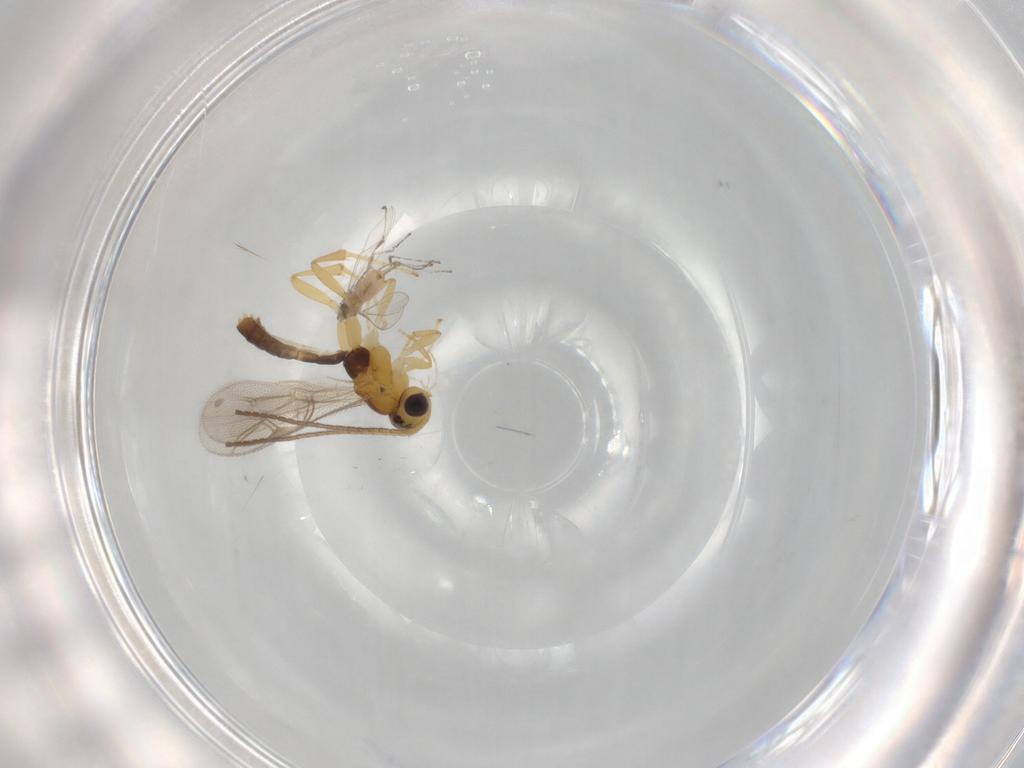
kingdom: Animalia
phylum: Arthropoda
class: Insecta
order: Hymenoptera
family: Ichneumonidae
